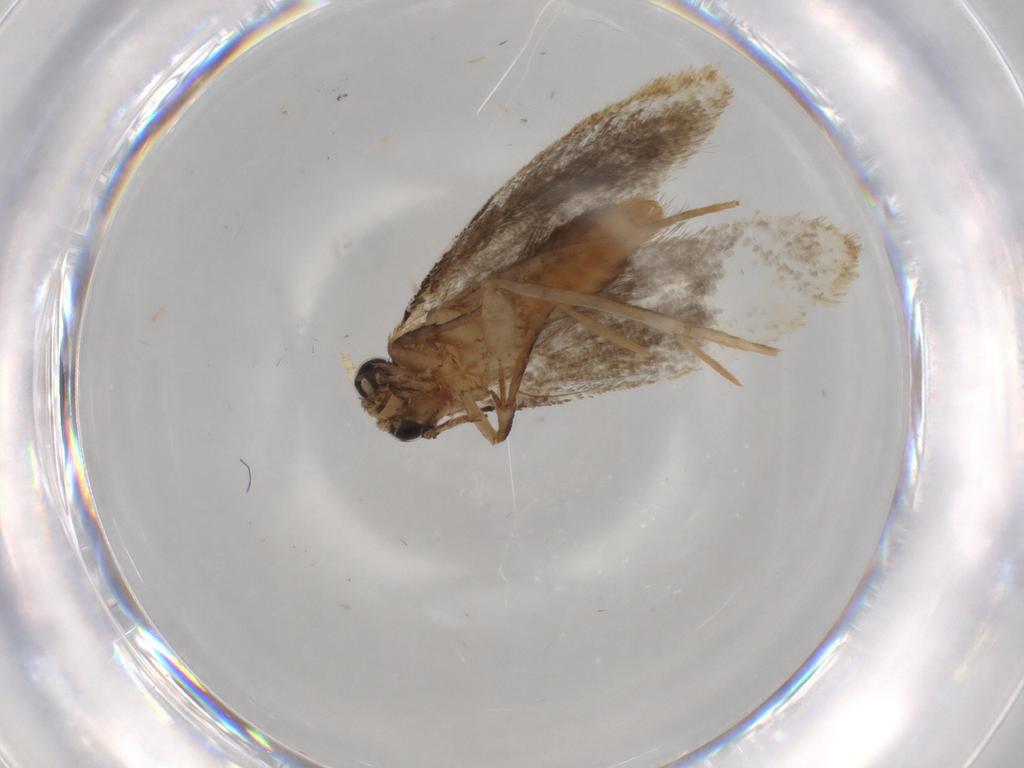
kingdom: Animalia
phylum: Arthropoda
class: Insecta
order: Lepidoptera
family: Tineidae
